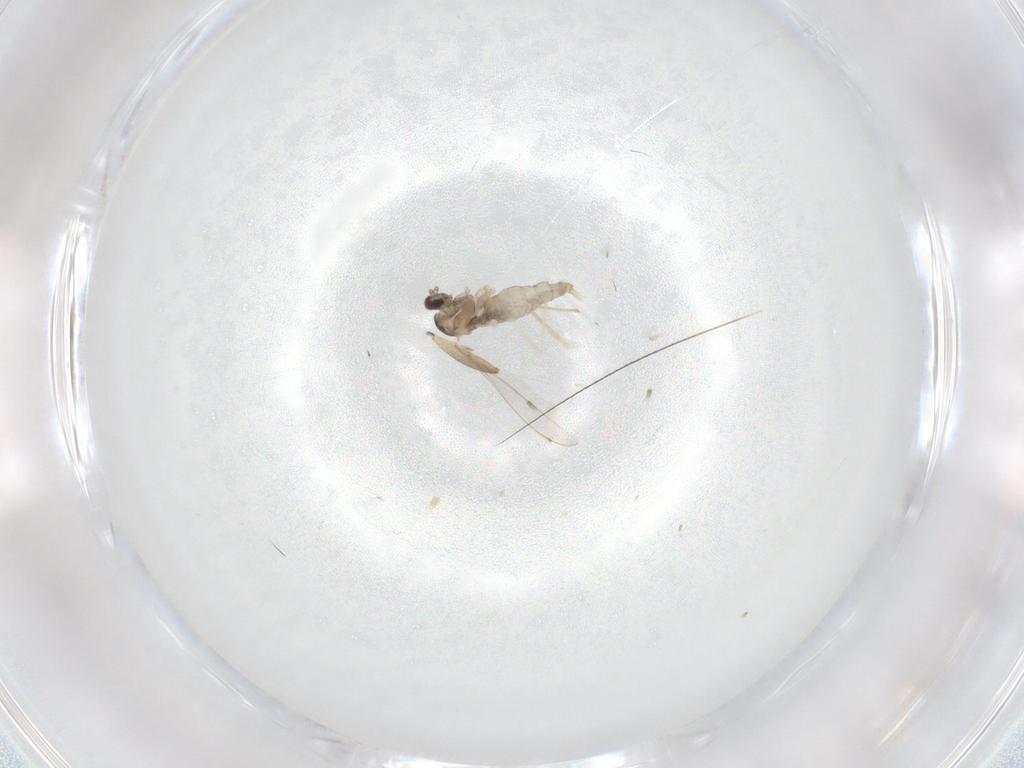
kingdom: Animalia
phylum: Arthropoda
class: Insecta
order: Diptera
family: Sciaridae
